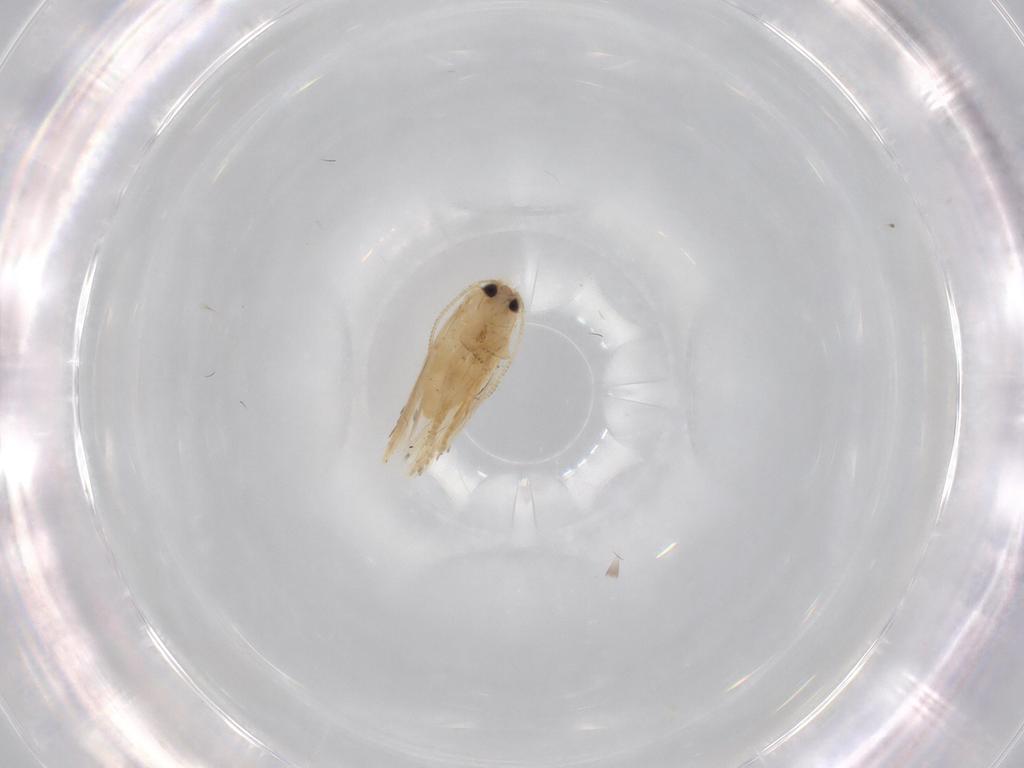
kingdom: Animalia
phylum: Arthropoda
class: Insecta
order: Lepidoptera
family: Nepticulidae
